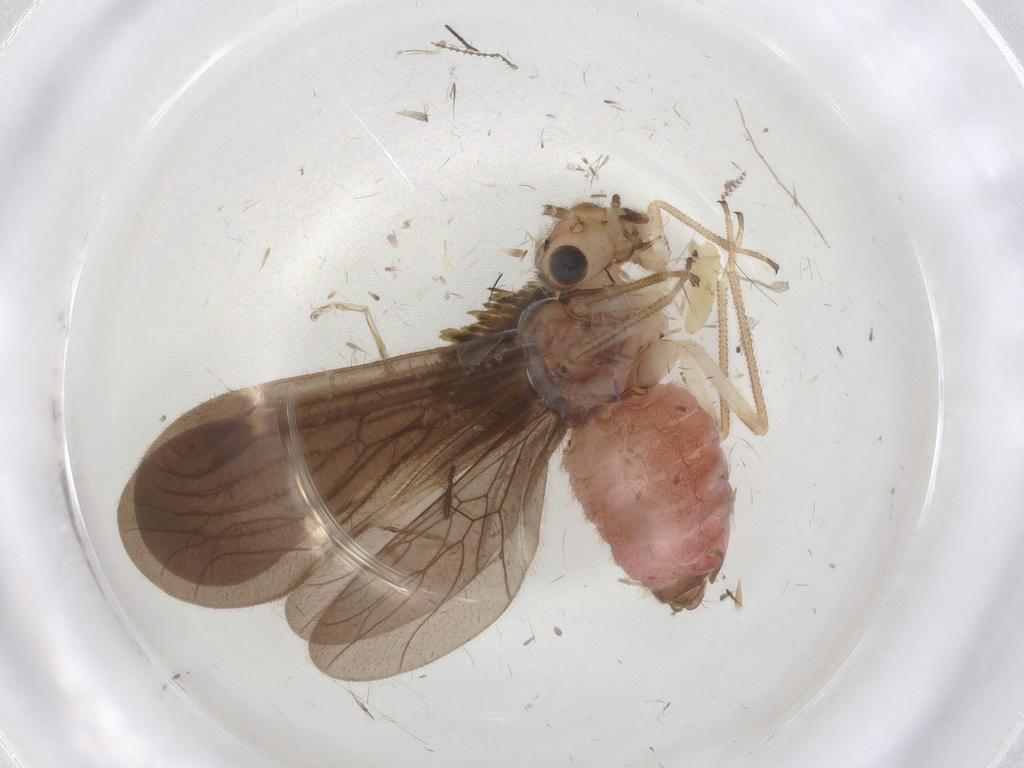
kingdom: Animalia
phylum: Arthropoda
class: Insecta
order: Psocodea
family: Amphipsocidae
